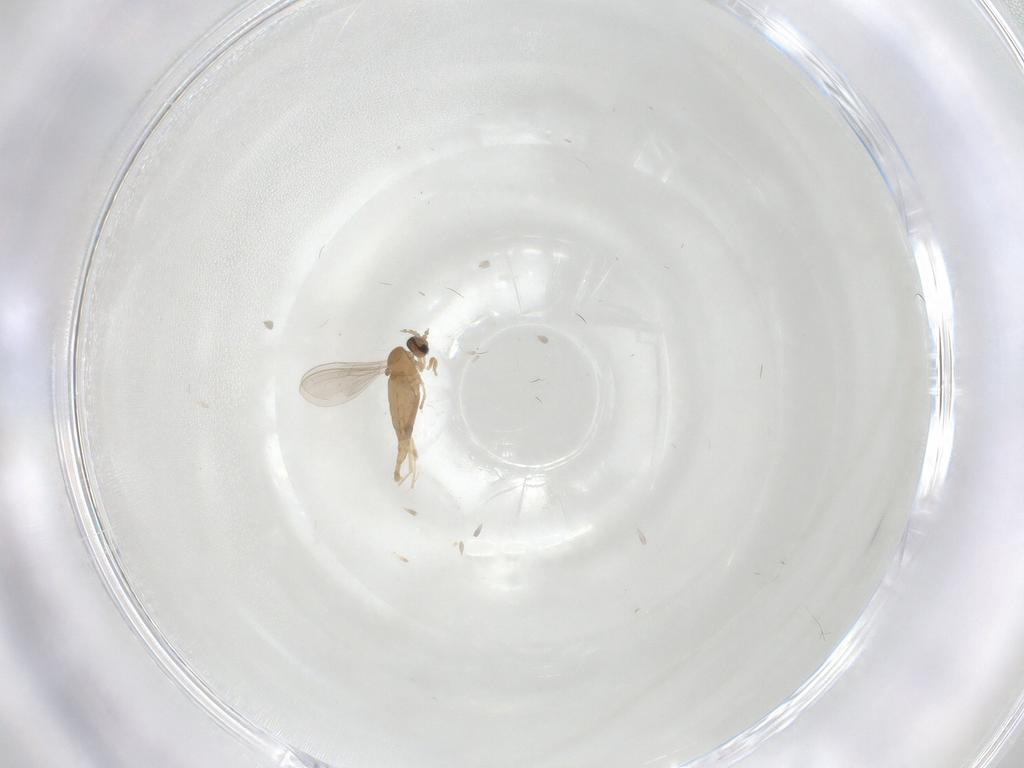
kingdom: Animalia
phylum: Arthropoda
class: Insecta
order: Diptera
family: Cecidomyiidae
